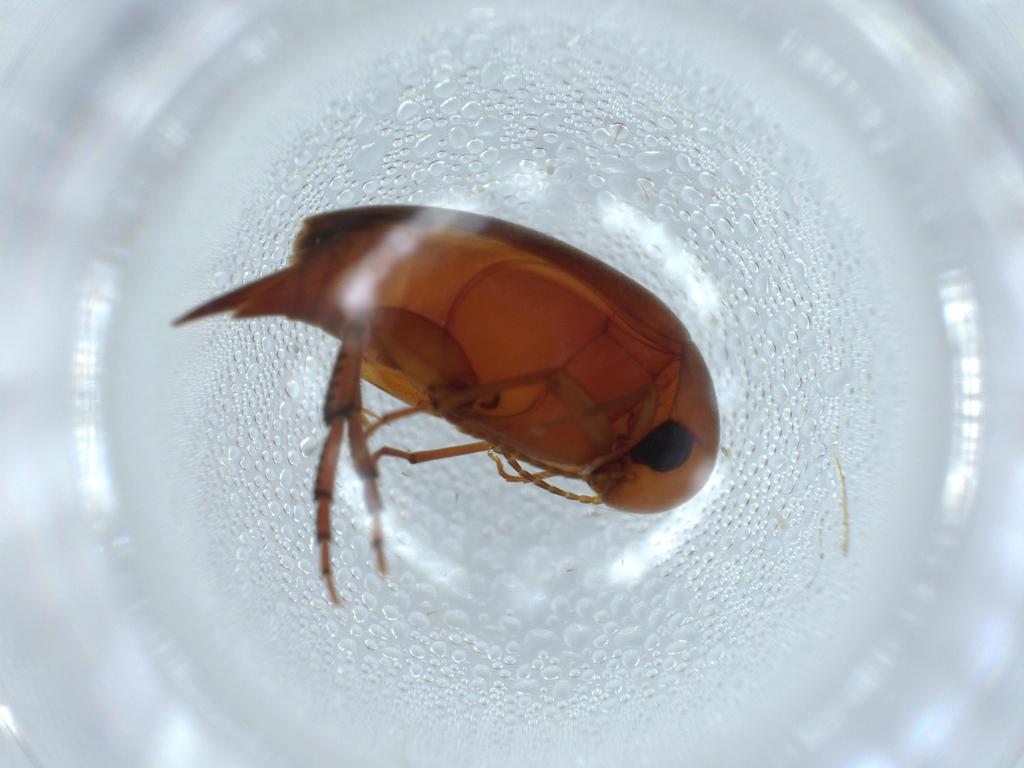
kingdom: Animalia
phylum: Arthropoda
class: Insecta
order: Coleoptera
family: Mordellidae
